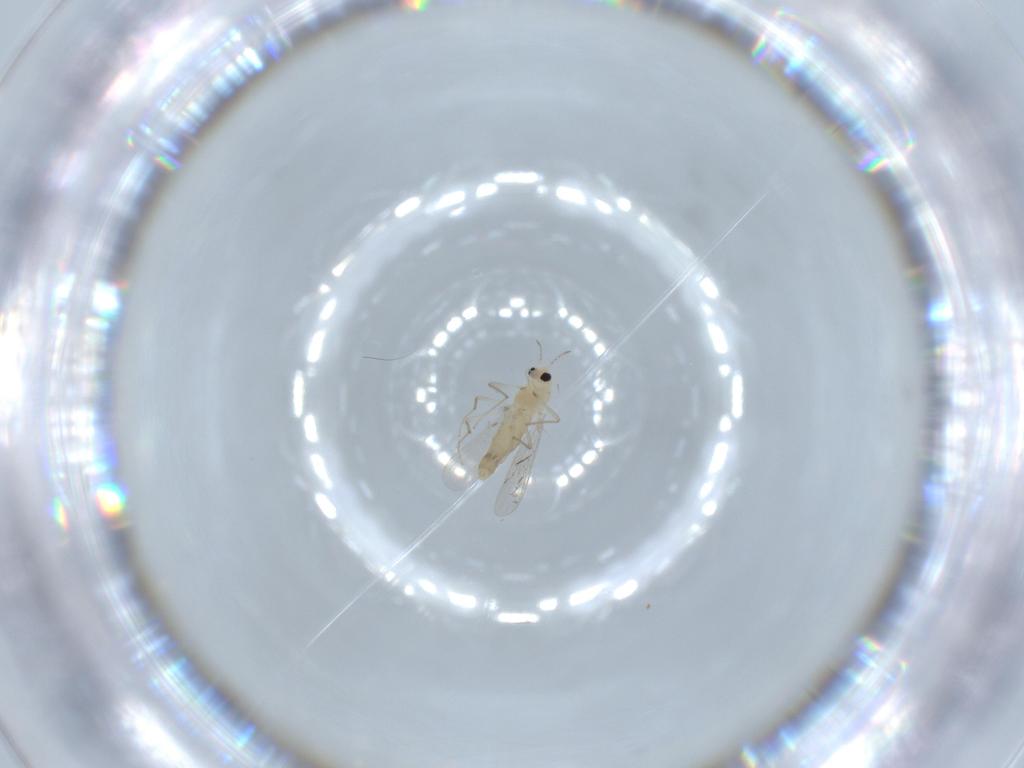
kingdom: Animalia
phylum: Arthropoda
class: Insecta
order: Diptera
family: Chironomidae
